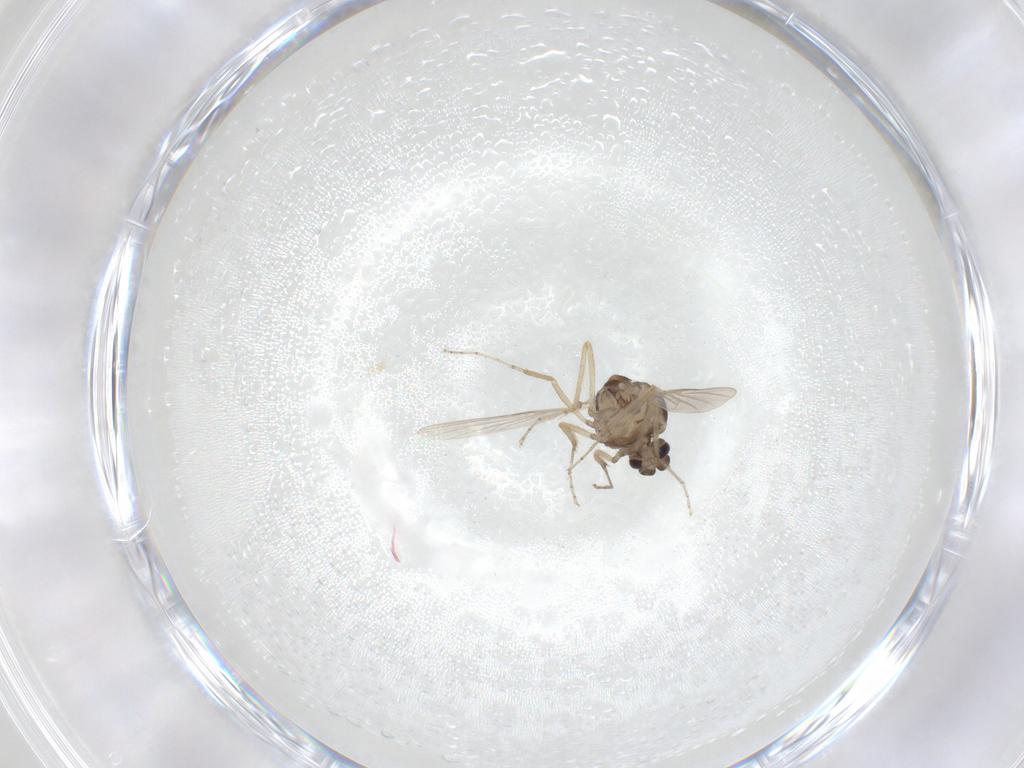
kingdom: Animalia
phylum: Arthropoda
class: Insecta
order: Diptera
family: Ceratopogonidae
